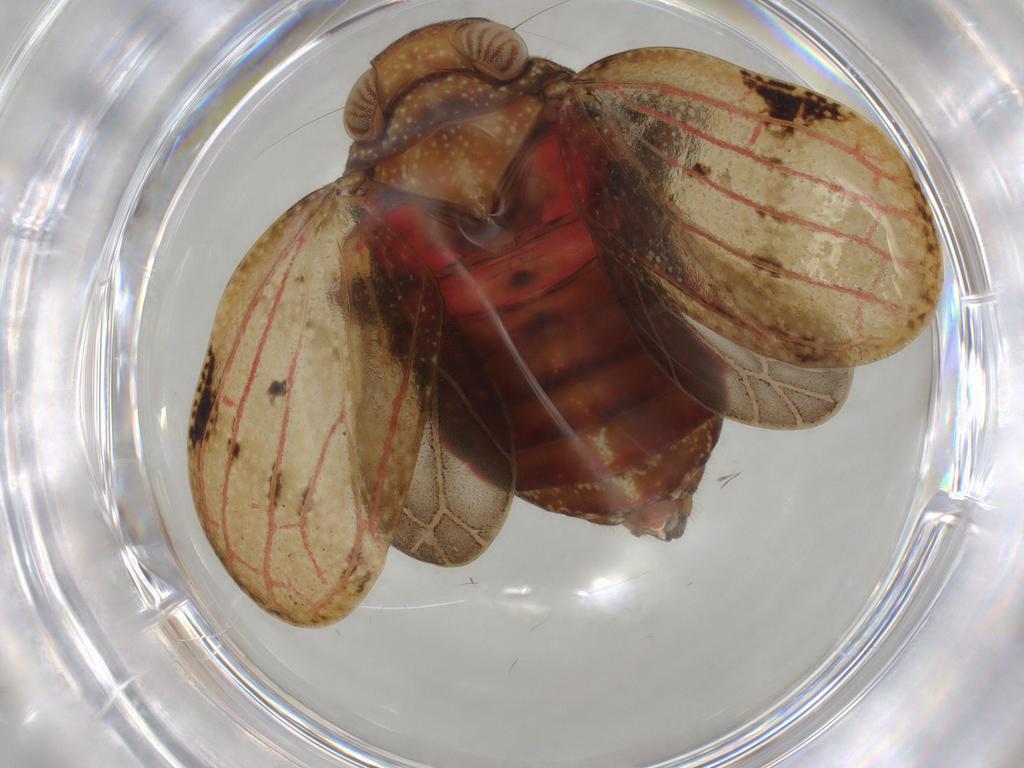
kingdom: Animalia
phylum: Arthropoda
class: Insecta
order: Hemiptera
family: Tropiduchidae
